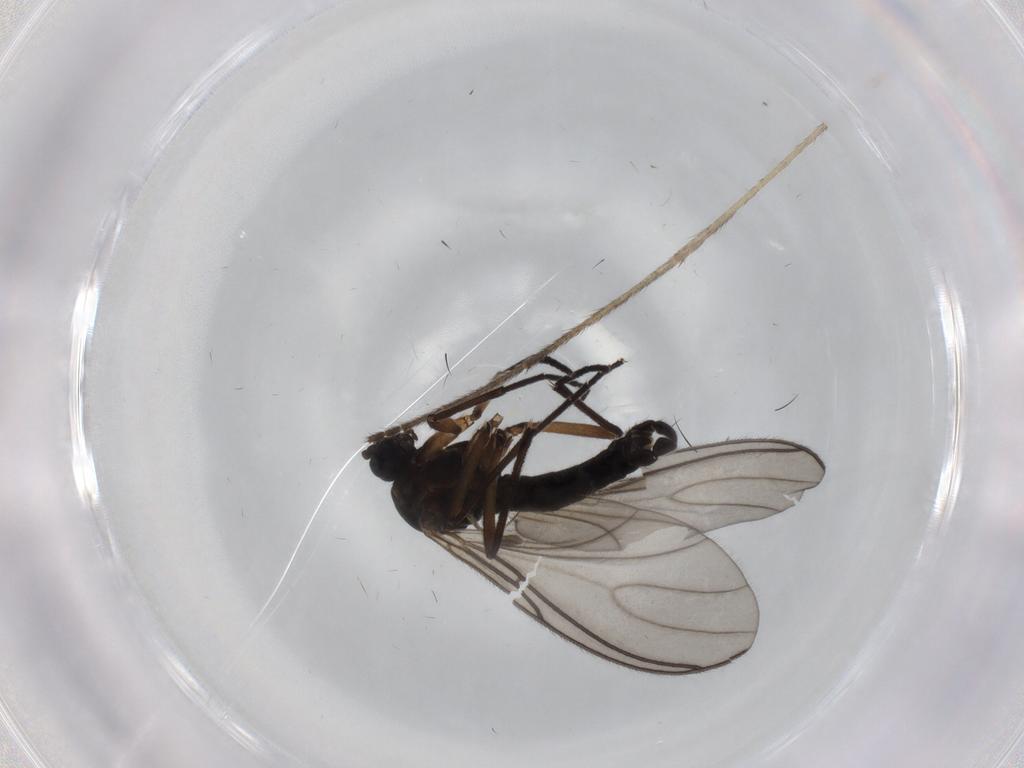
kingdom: Animalia
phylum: Arthropoda
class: Insecta
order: Diptera
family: Sciaridae
